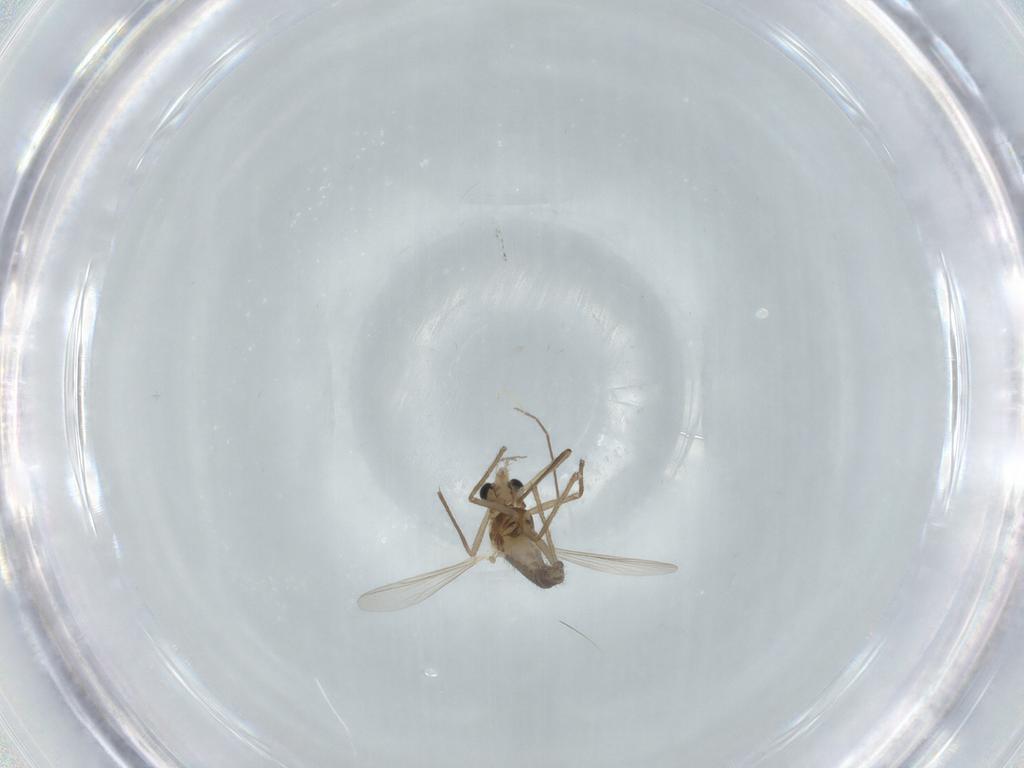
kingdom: Animalia
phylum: Arthropoda
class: Insecta
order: Diptera
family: Chironomidae
